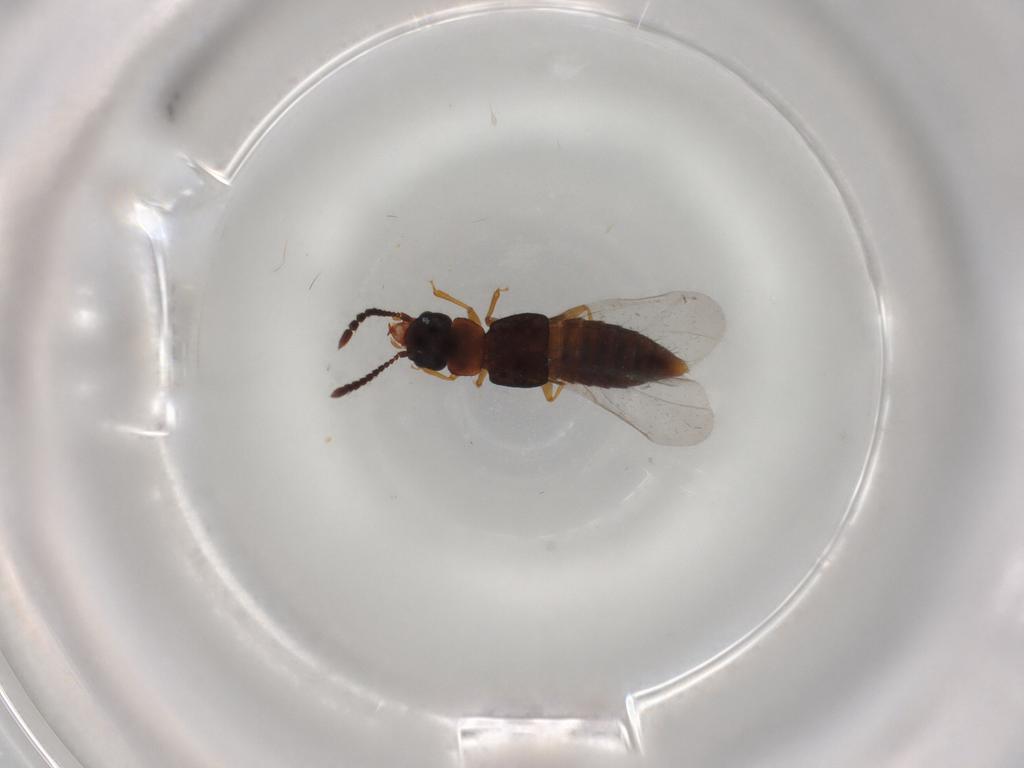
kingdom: Animalia
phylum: Arthropoda
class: Insecta
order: Coleoptera
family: Staphylinidae
